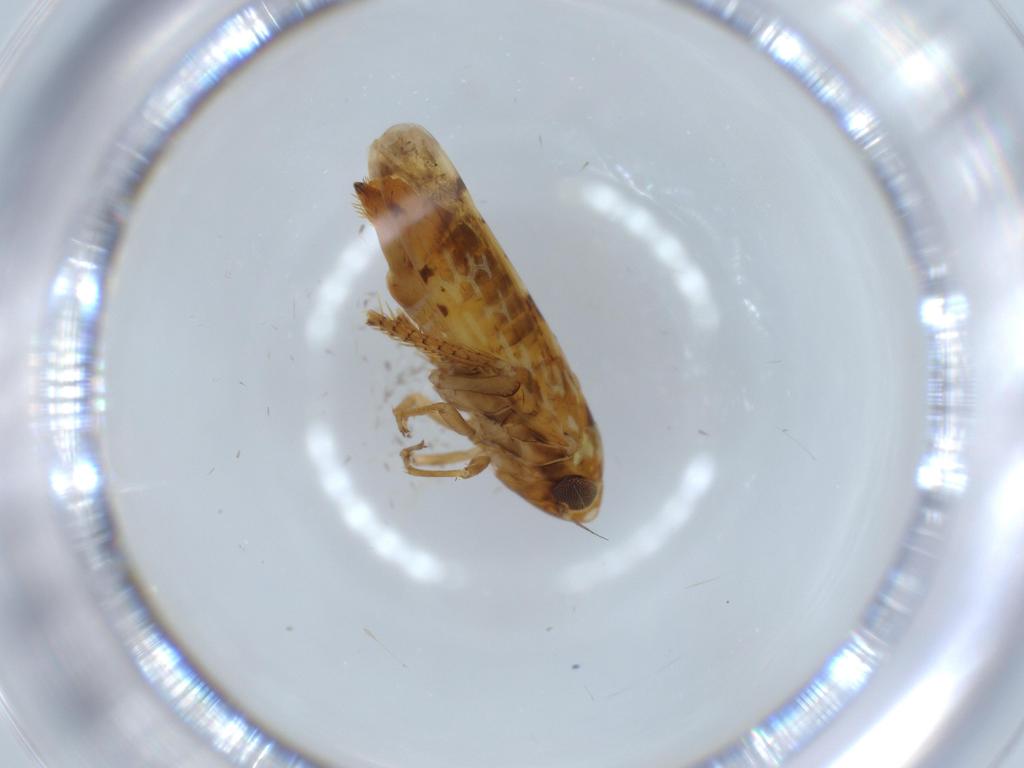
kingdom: Animalia
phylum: Arthropoda
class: Insecta
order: Hemiptera
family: Cicadellidae
